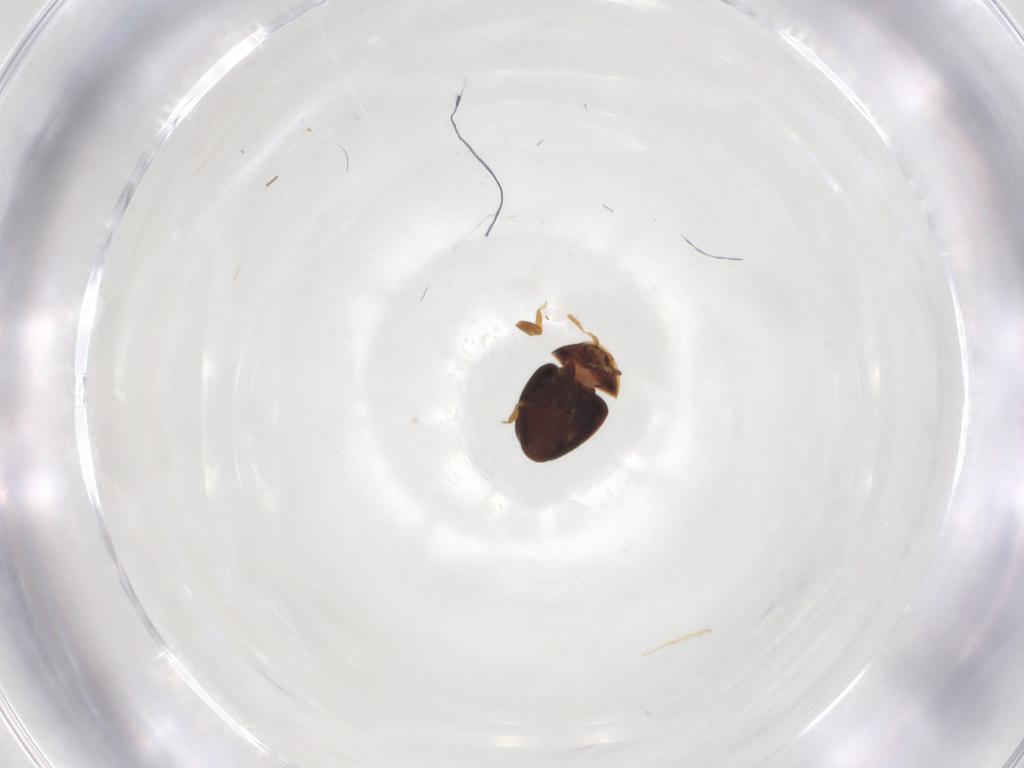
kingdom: Animalia
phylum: Arthropoda
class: Insecta
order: Coleoptera
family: Corylophidae
